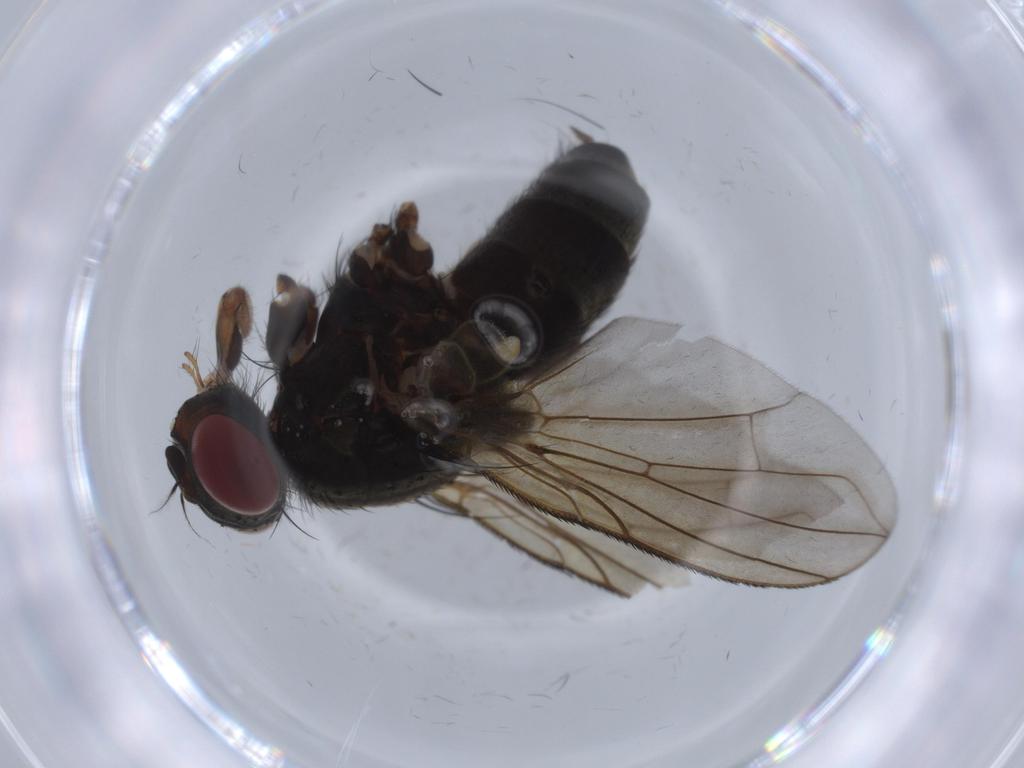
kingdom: Animalia
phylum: Arthropoda
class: Insecta
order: Diptera
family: Calliphoridae
